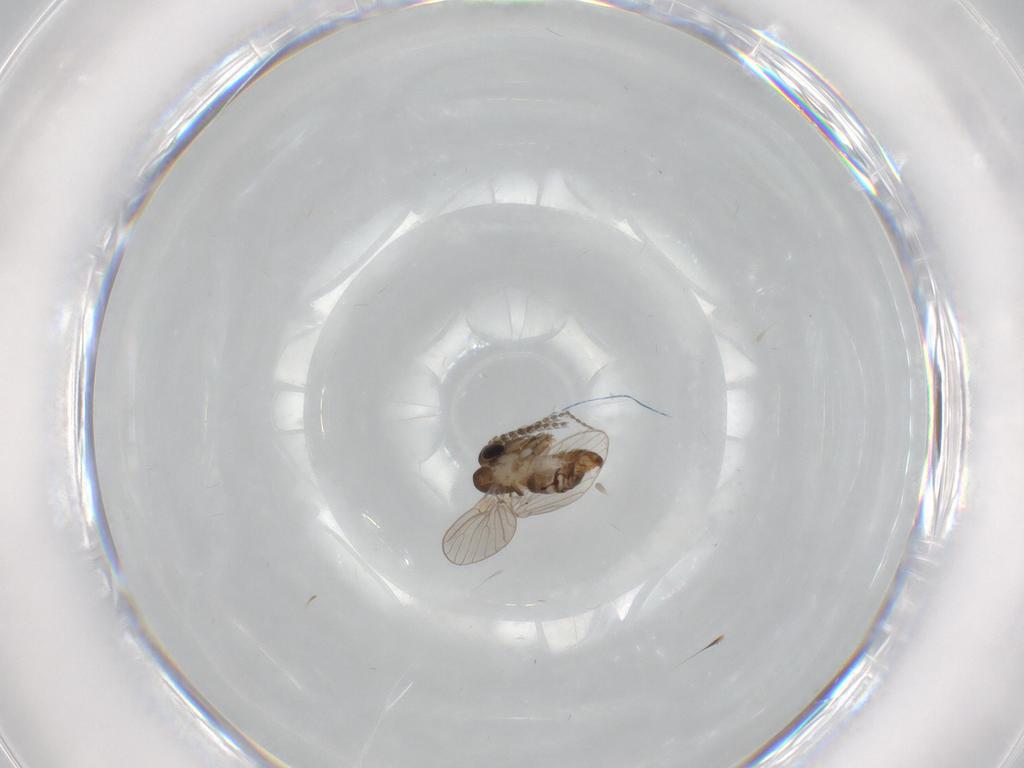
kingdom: Animalia
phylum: Arthropoda
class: Insecta
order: Diptera
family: Psychodidae
